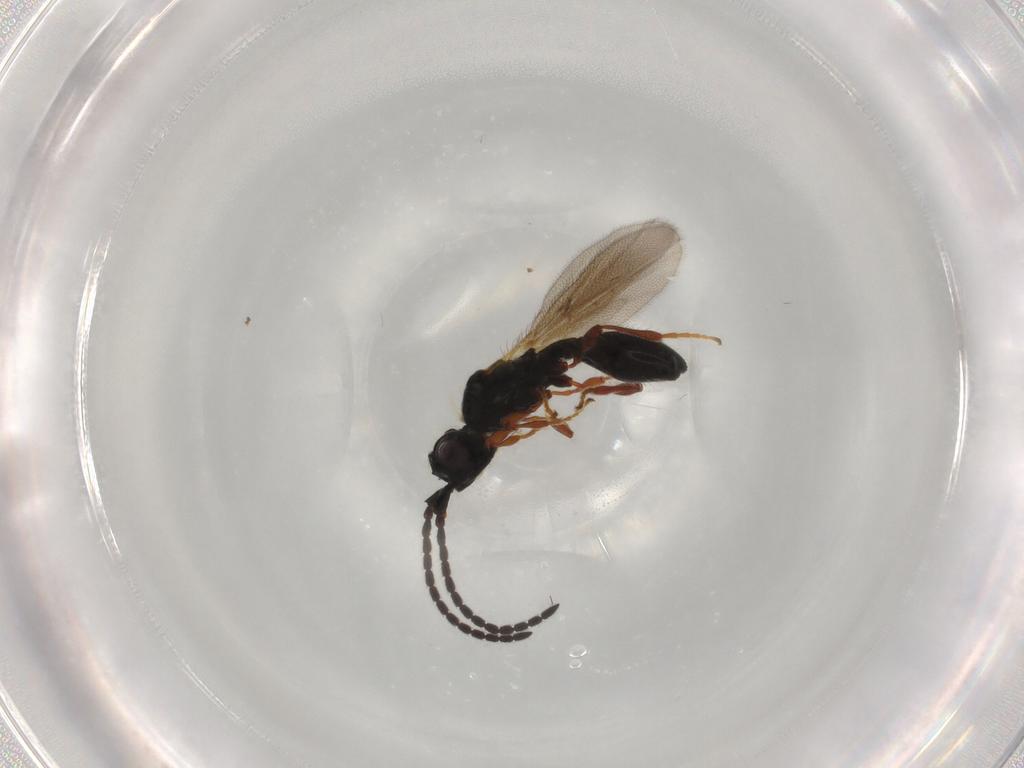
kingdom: Animalia
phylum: Arthropoda
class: Insecta
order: Hymenoptera
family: Diapriidae
